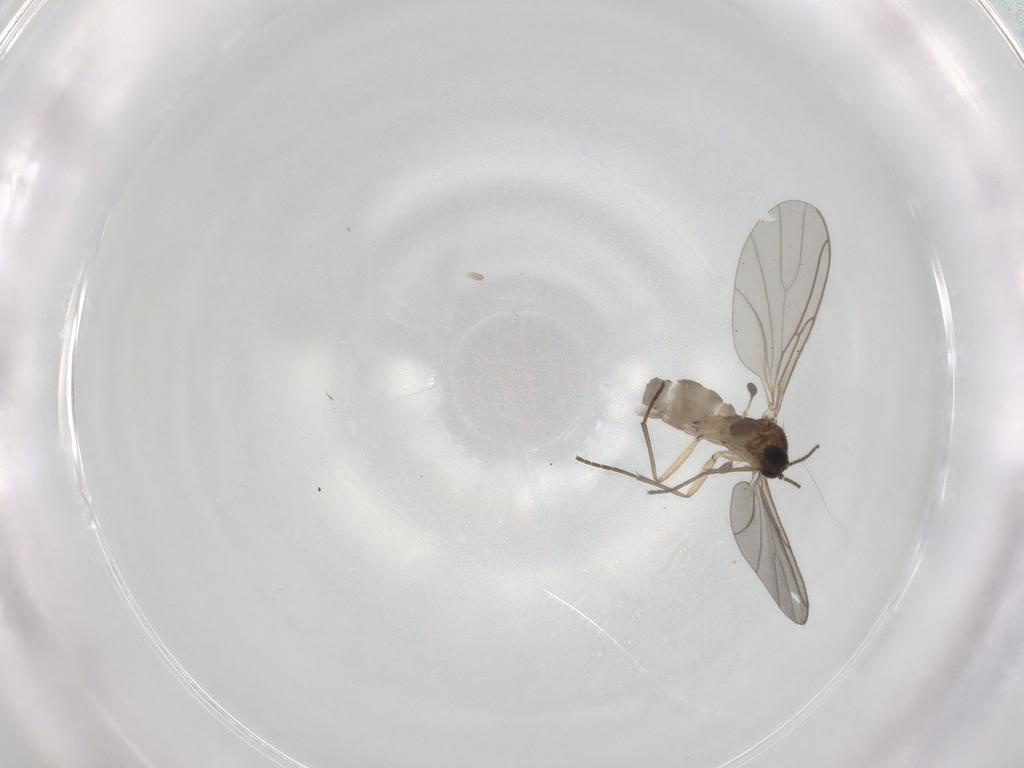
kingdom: Animalia
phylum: Arthropoda
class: Insecta
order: Diptera
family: Sciaridae
